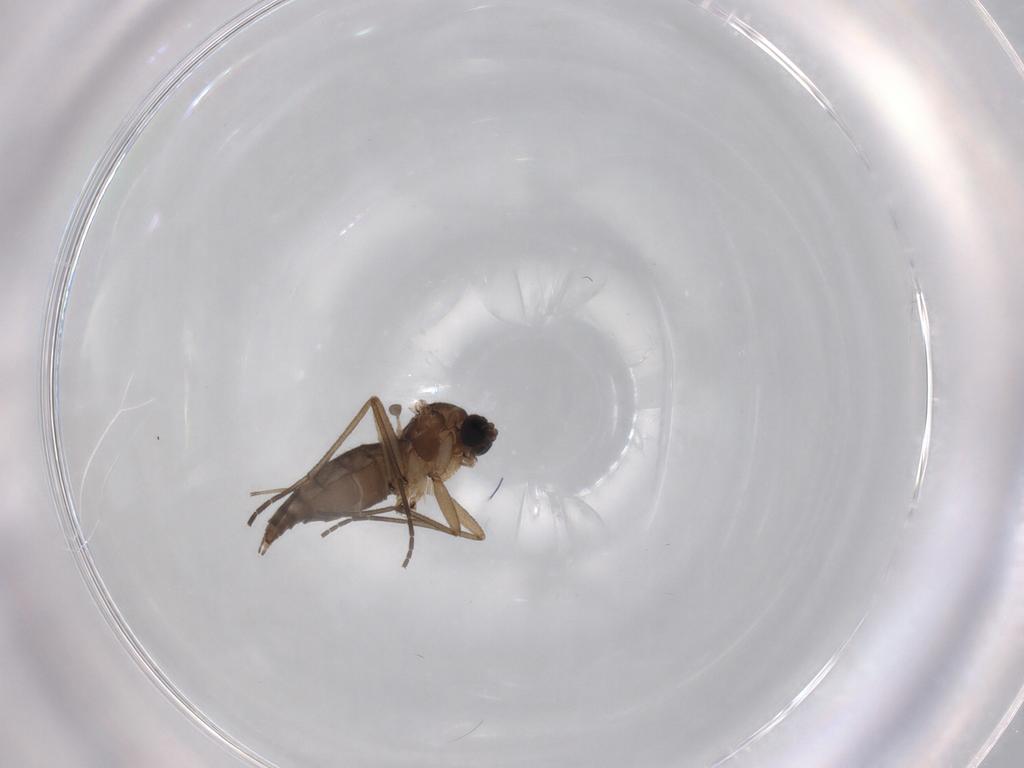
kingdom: Animalia
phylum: Arthropoda
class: Insecta
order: Diptera
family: Sciaridae
